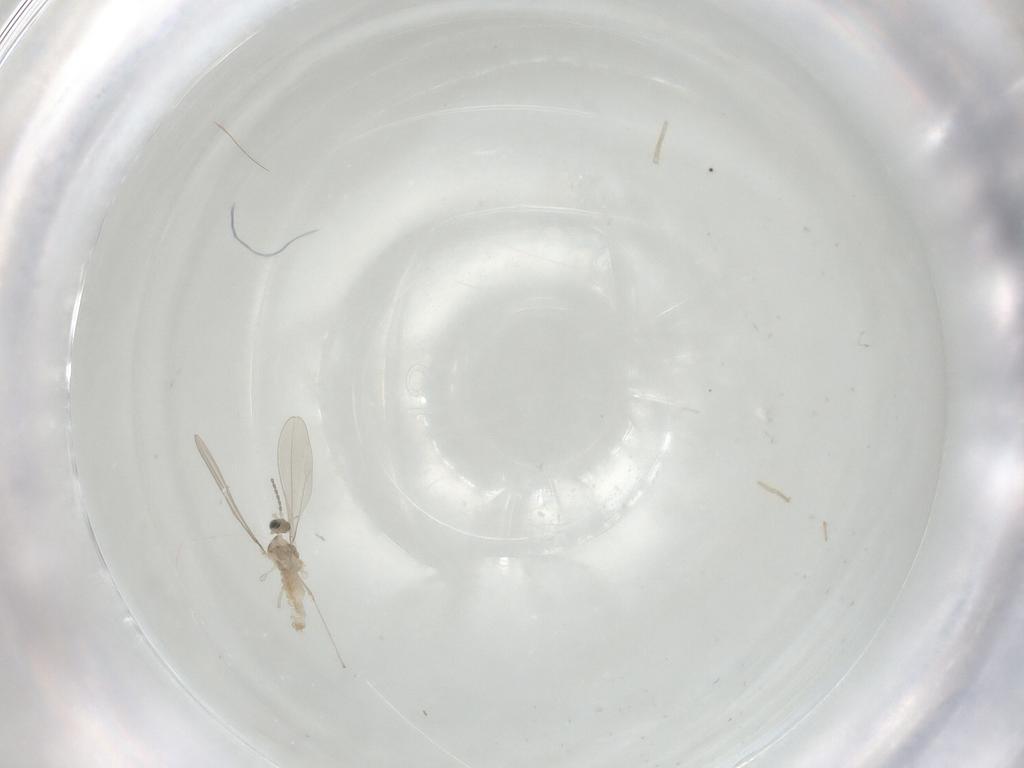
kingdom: Animalia
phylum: Arthropoda
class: Insecta
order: Diptera
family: Cecidomyiidae
